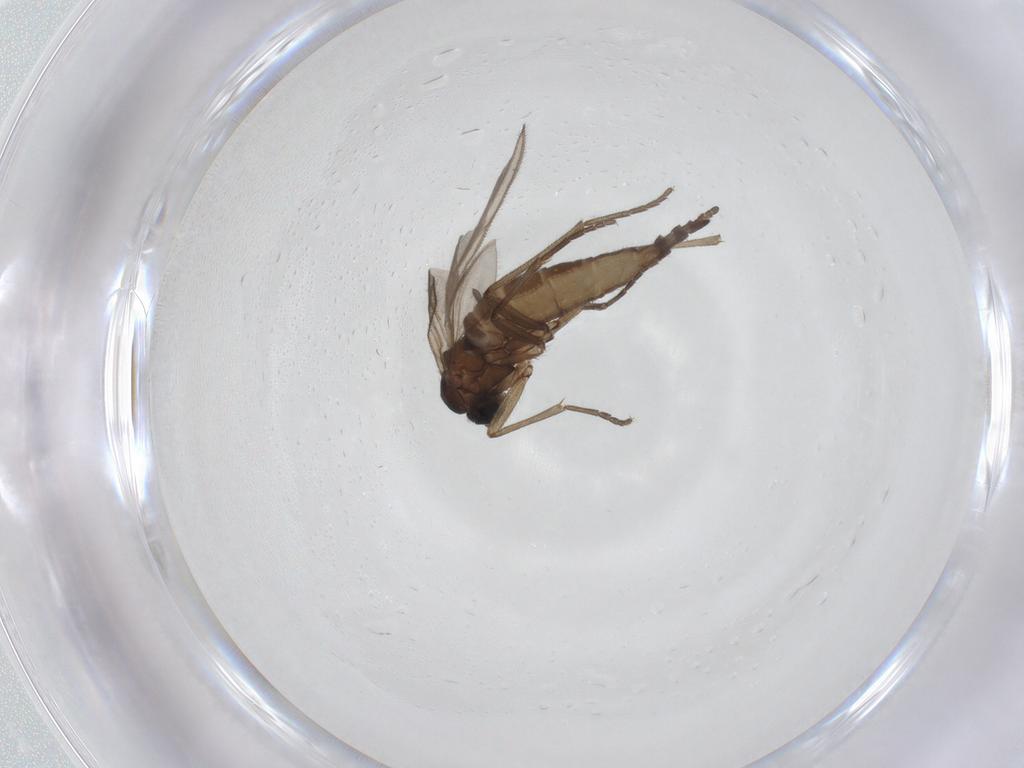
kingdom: Animalia
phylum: Arthropoda
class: Insecta
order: Diptera
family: Sciaridae
